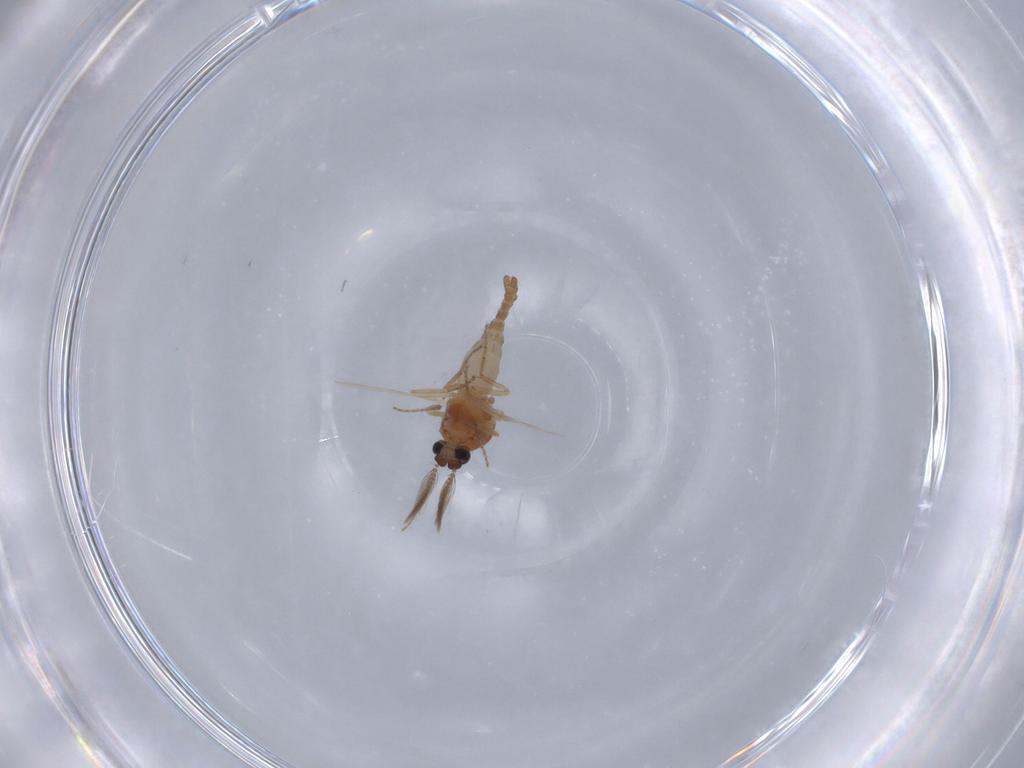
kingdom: Animalia
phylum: Arthropoda
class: Insecta
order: Diptera
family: Ceratopogonidae
